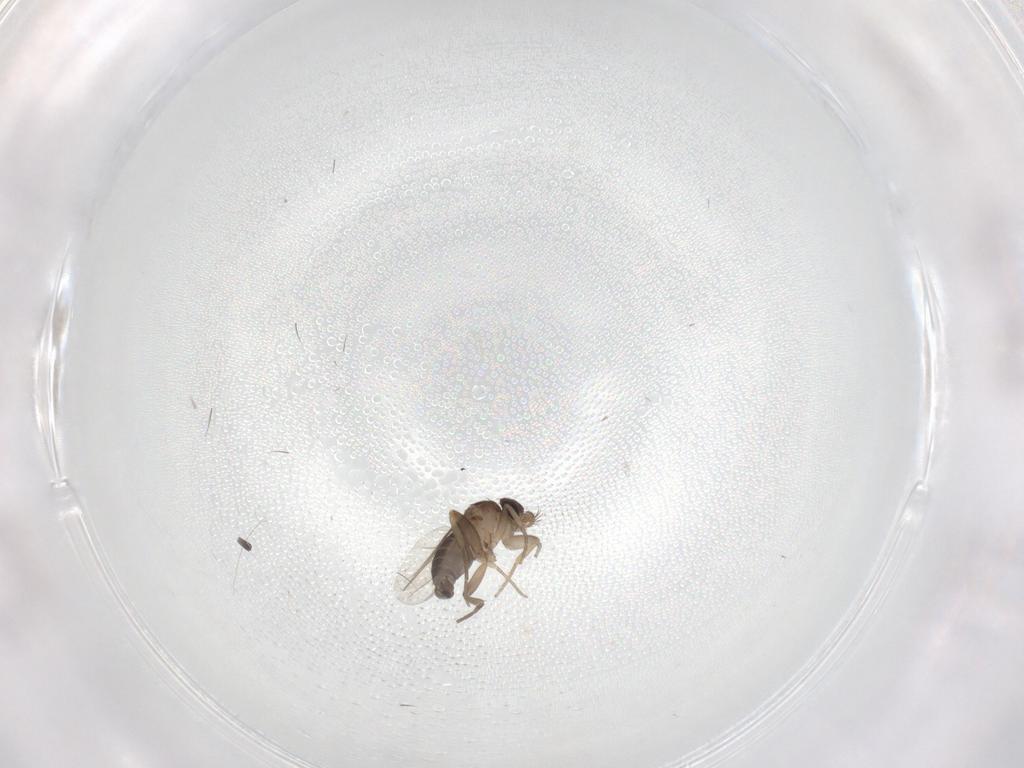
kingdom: Animalia
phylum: Arthropoda
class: Insecta
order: Diptera
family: Phoridae
